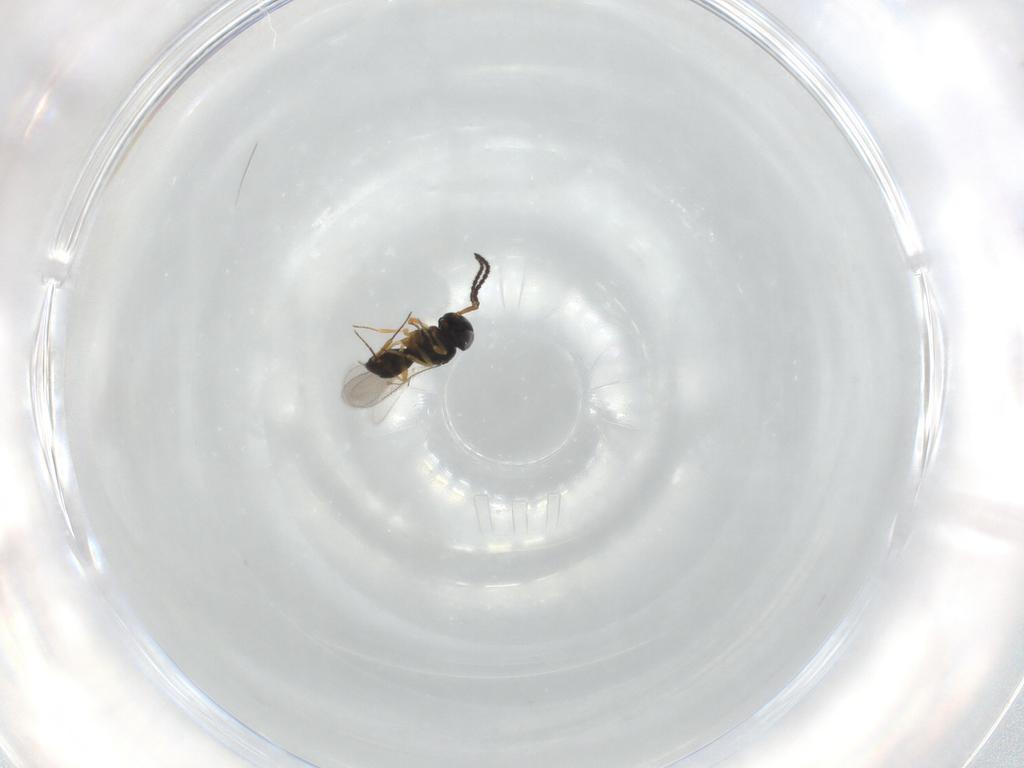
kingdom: Animalia
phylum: Arthropoda
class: Insecta
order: Hymenoptera
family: Scelionidae
